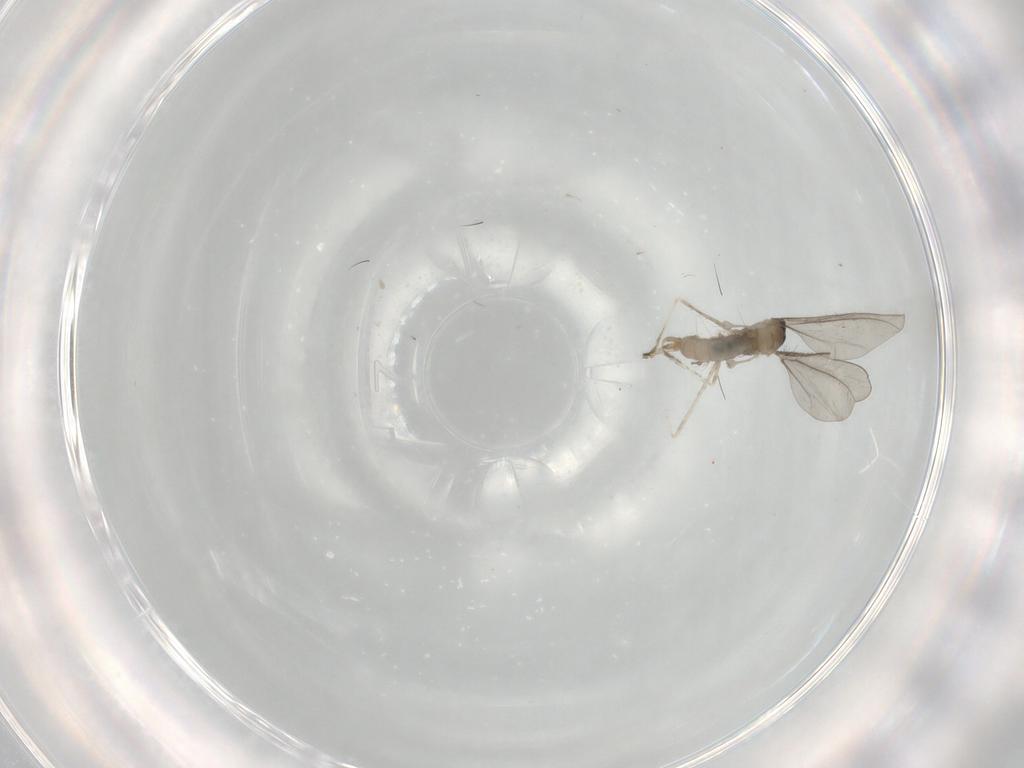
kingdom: Animalia
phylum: Arthropoda
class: Insecta
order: Diptera
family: Cecidomyiidae
